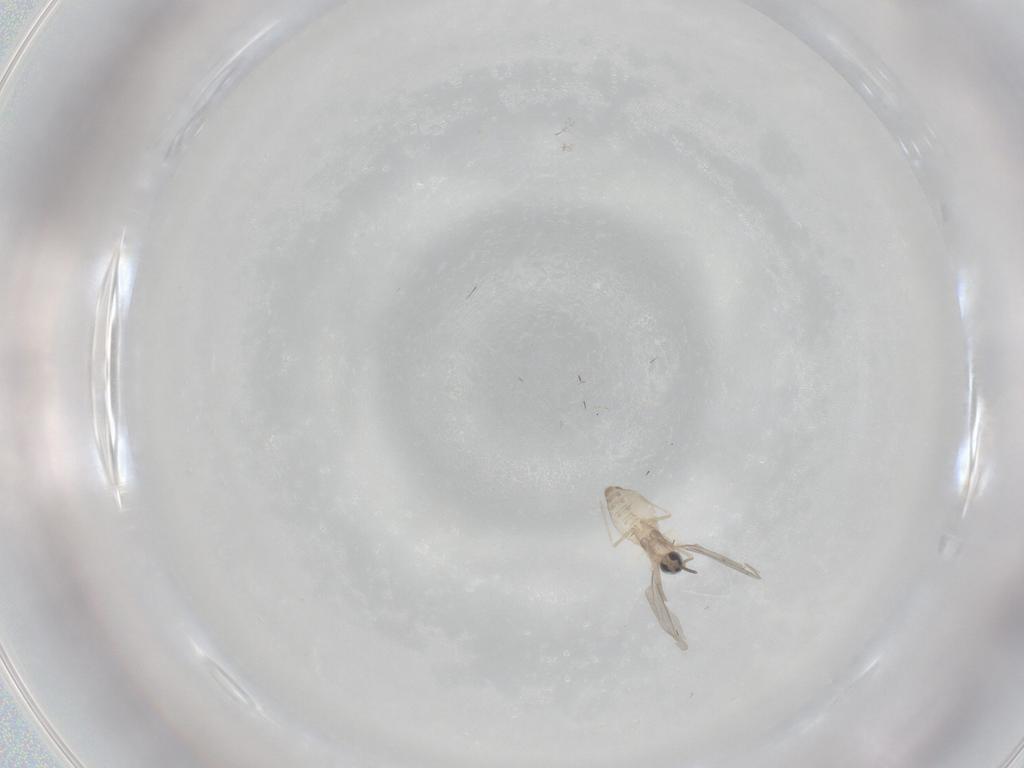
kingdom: Animalia
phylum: Arthropoda
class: Insecta
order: Diptera
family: Cecidomyiidae
